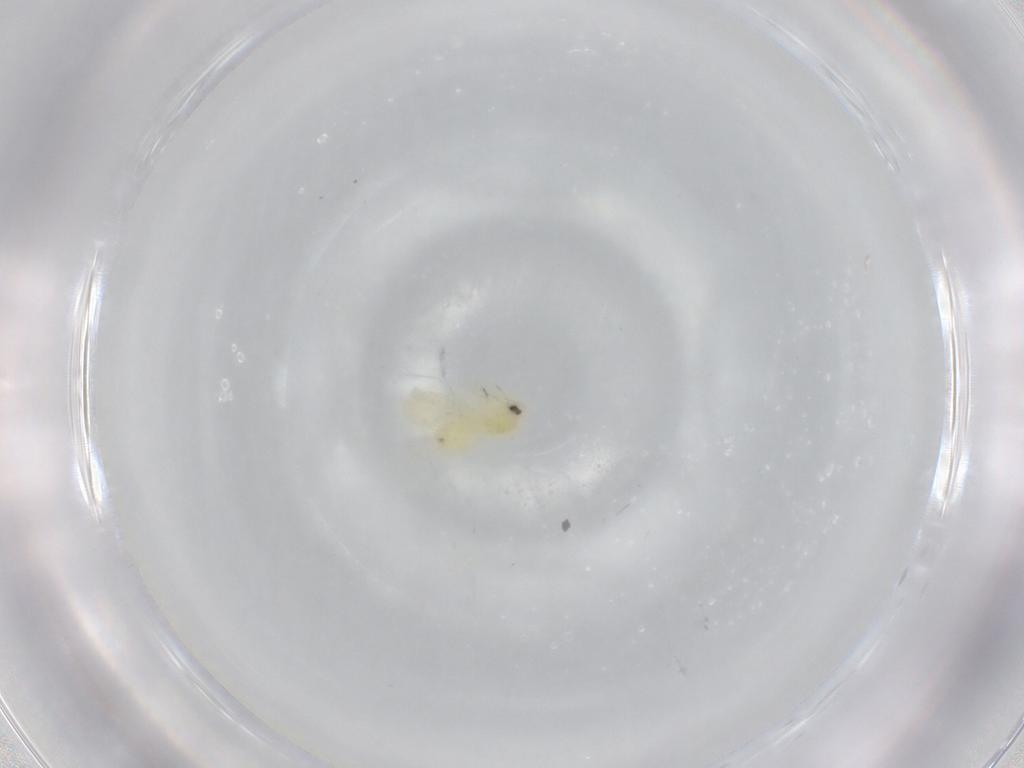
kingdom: Animalia
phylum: Arthropoda
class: Insecta
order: Hemiptera
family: Aleyrodidae
